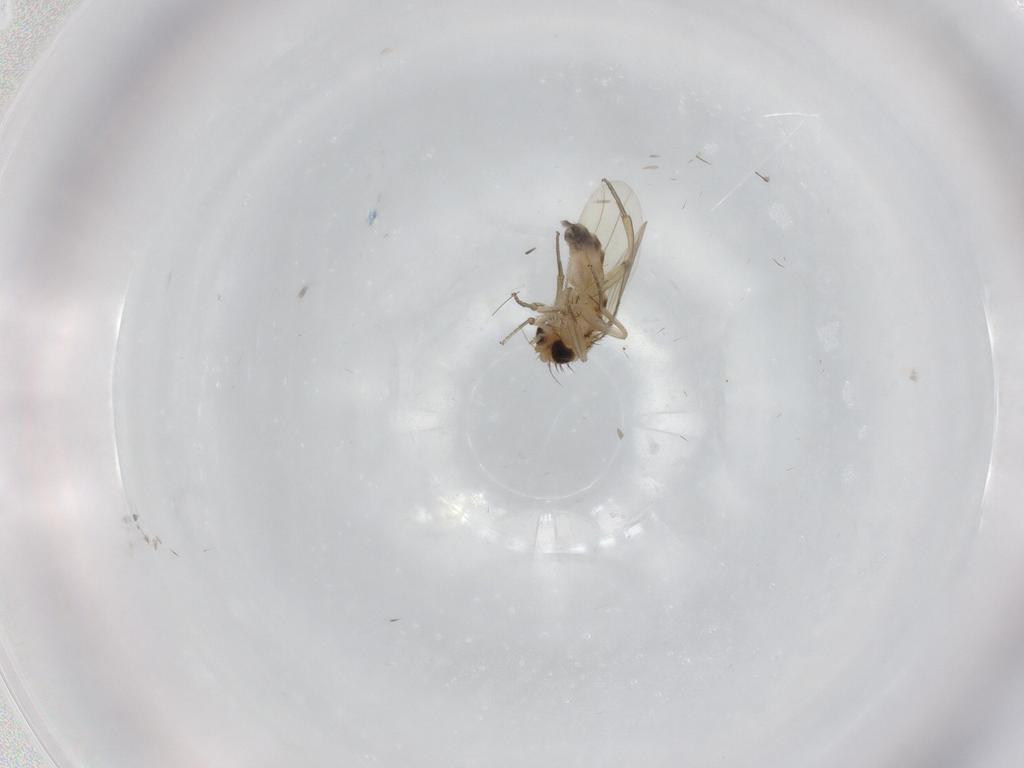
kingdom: Animalia
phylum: Arthropoda
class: Insecta
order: Diptera
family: Phoridae
